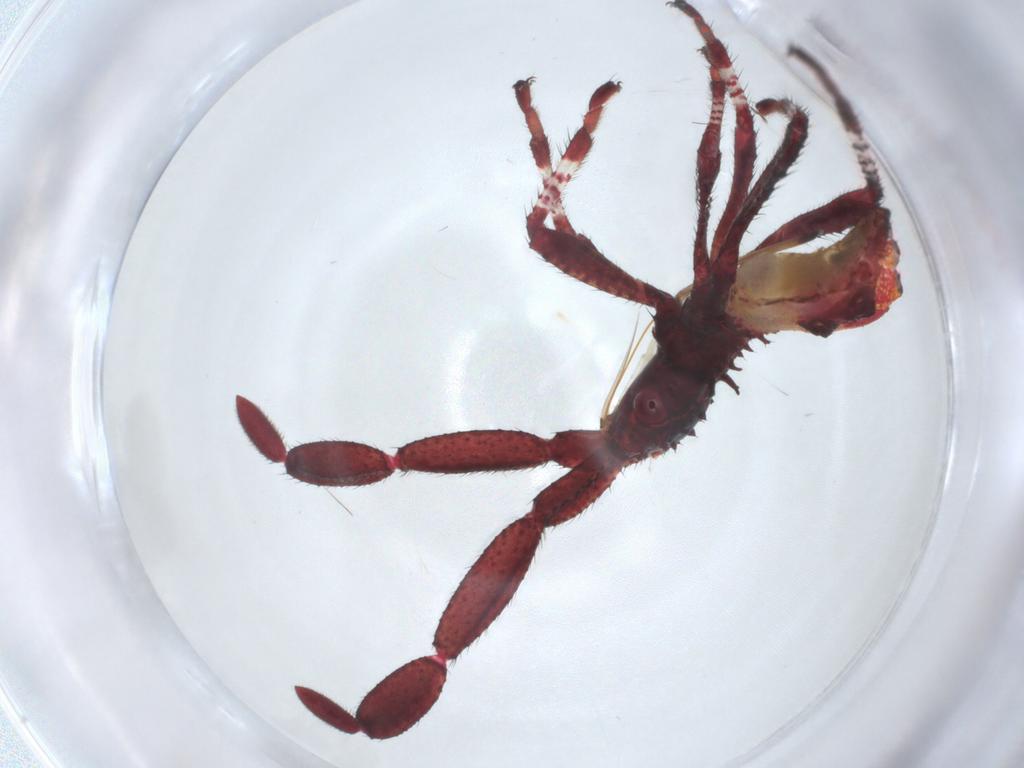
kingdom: Animalia
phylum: Arthropoda
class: Insecta
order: Hemiptera
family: Coreidae
